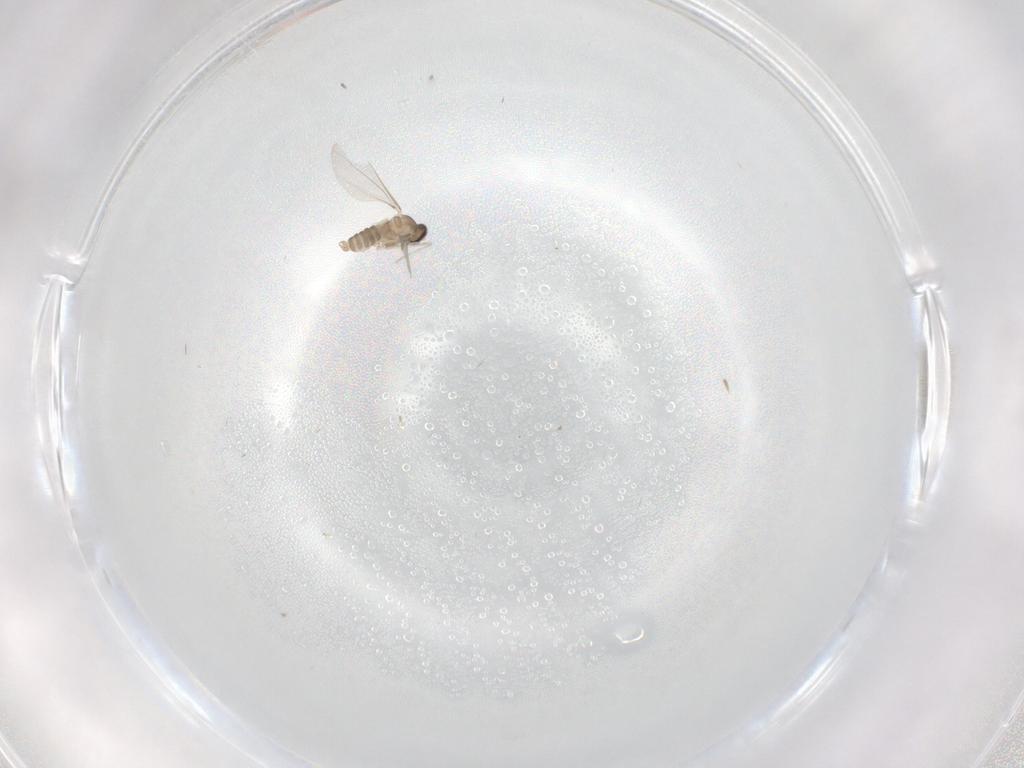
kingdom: Animalia
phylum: Arthropoda
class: Insecta
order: Diptera
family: Cecidomyiidae
